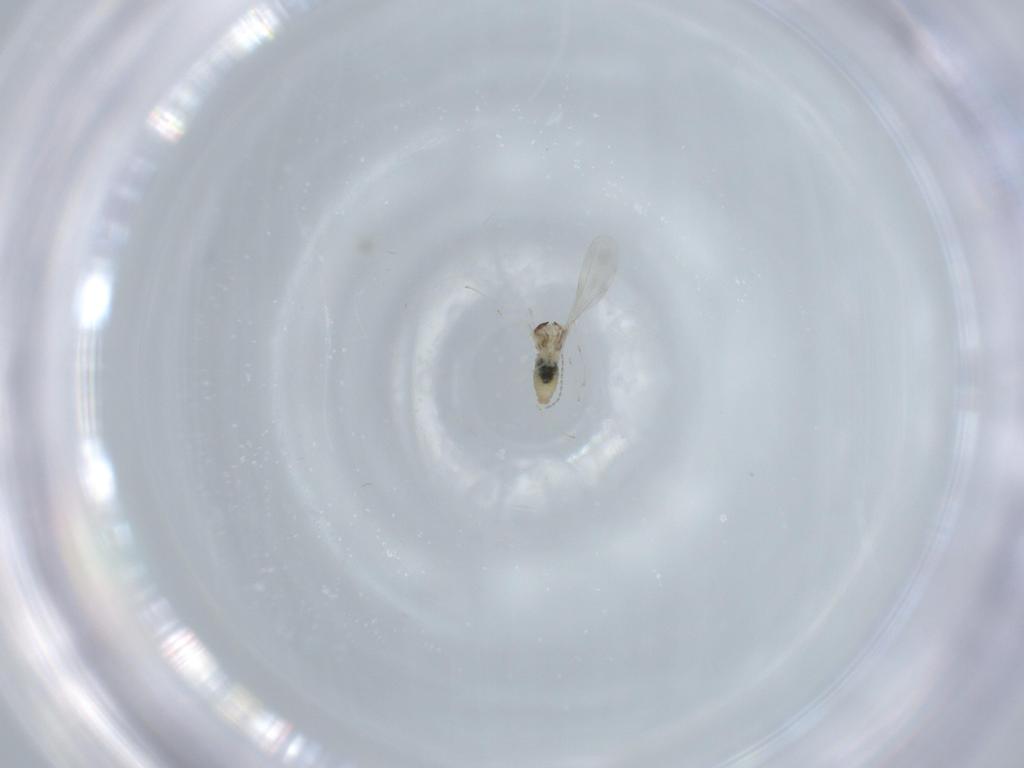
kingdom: Animalia
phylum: Arthropoda
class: Insecta
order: Diptera
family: Cecidomyiidae
